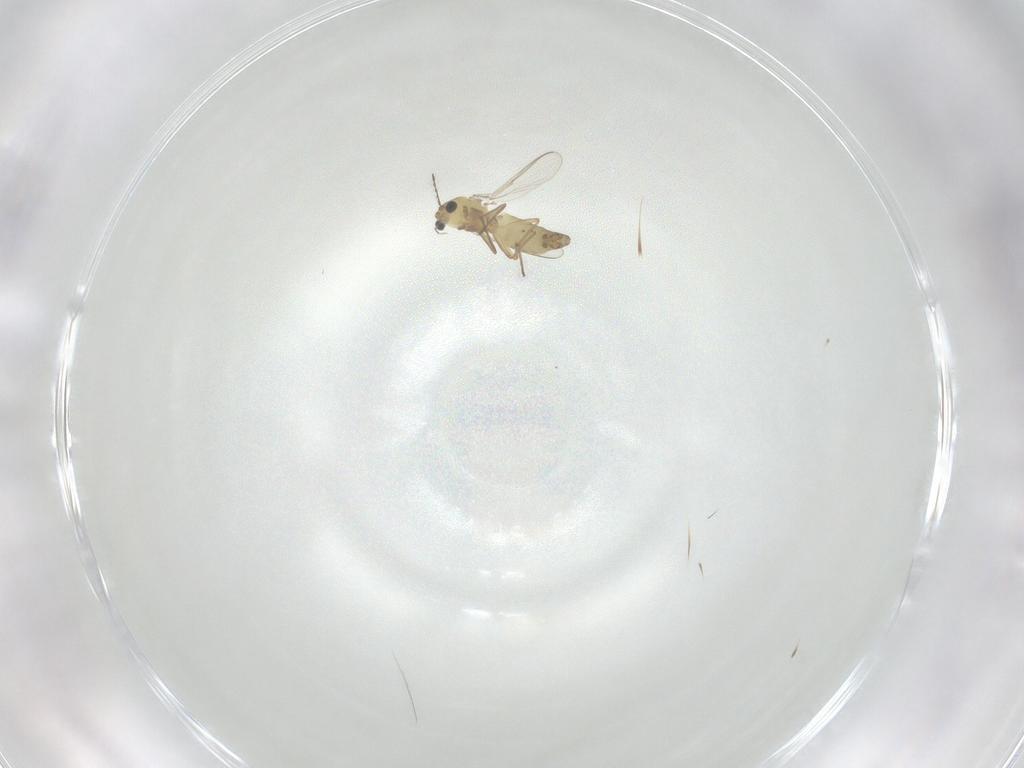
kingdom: Animalia
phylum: Arthropoda
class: Insecta
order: Diptera
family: Chironomidae
